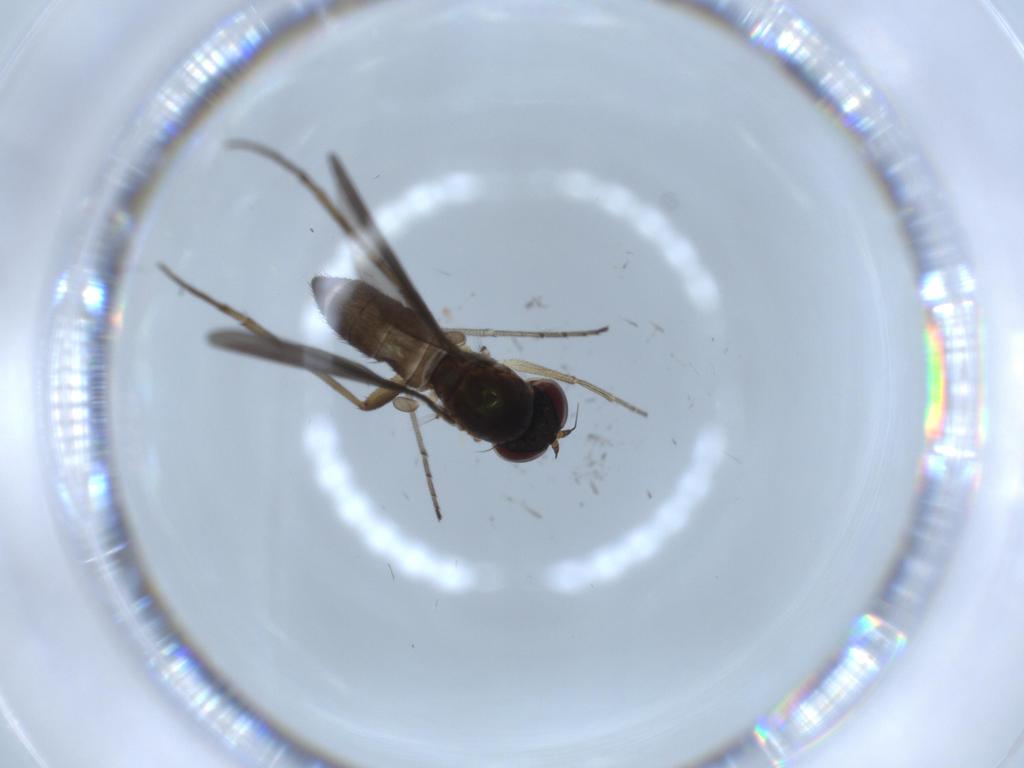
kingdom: Animalia
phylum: Arthropoda
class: Insecta
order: Diptera
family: Dolichopodidae
